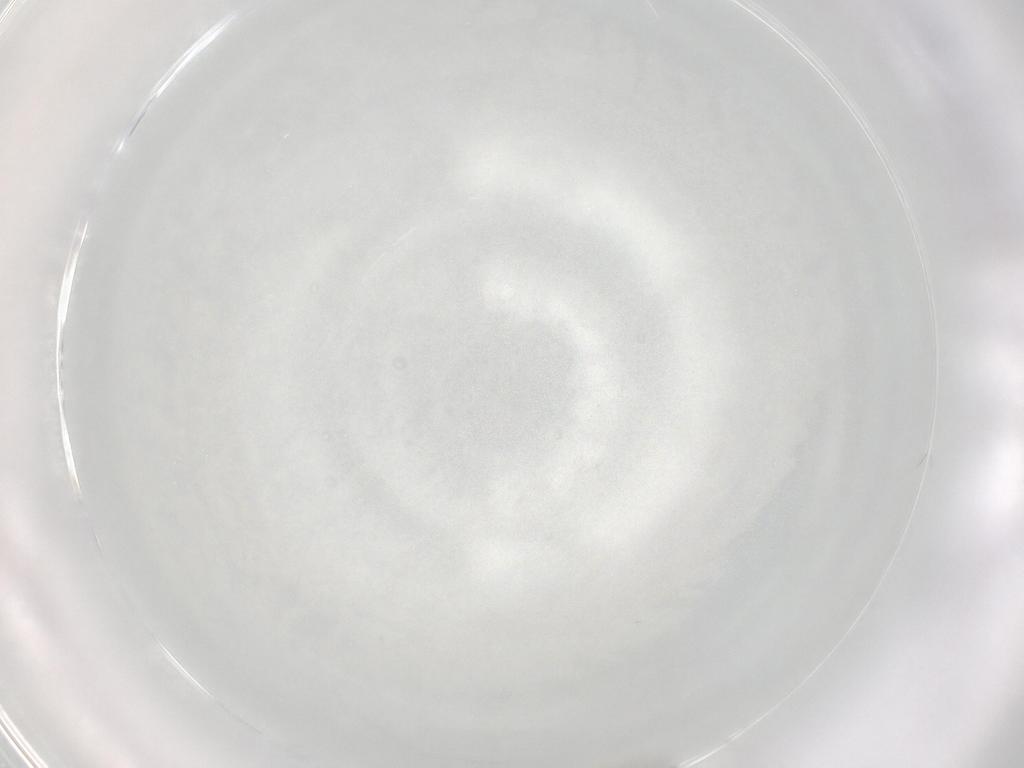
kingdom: Animalia
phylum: Arthropoda
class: Insecta
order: Diptera
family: Cecidomyiidae
